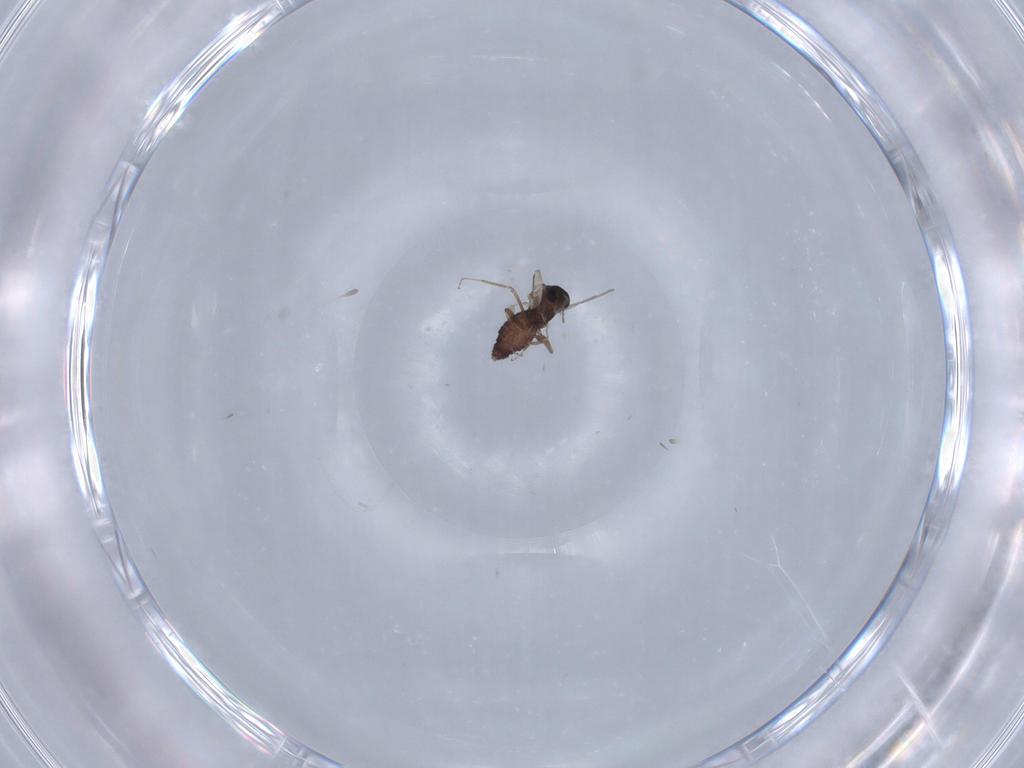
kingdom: Animalia
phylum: Arthropoda
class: Insecta
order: Diptera
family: Ceratopogonidae
